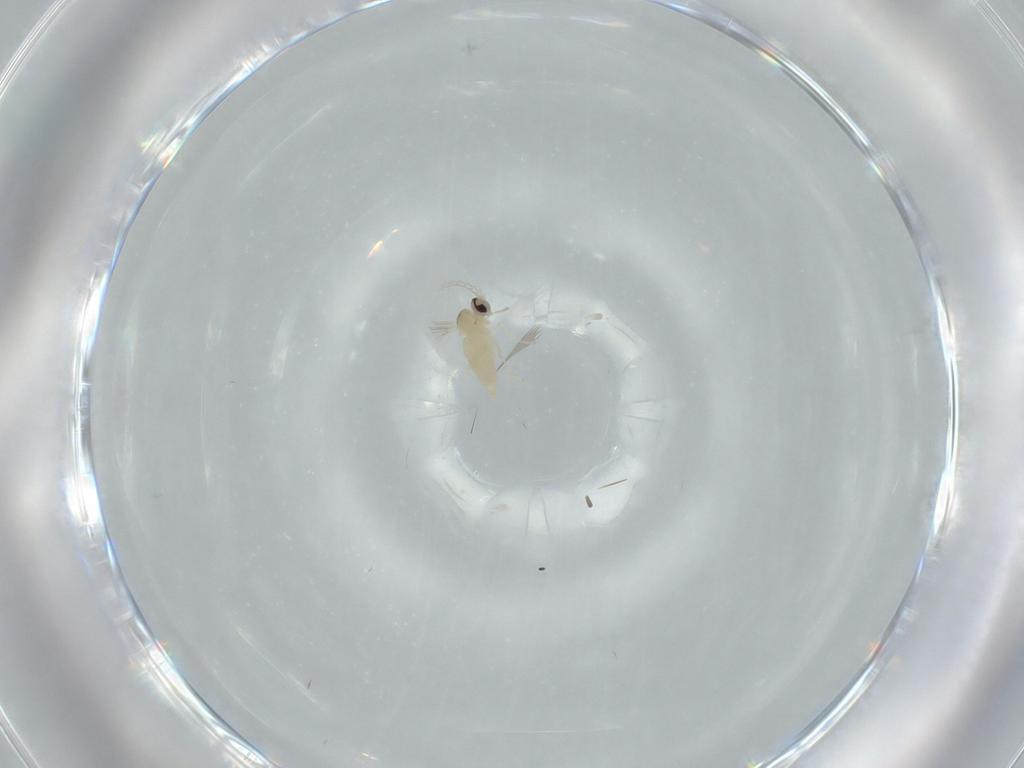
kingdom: Animalia
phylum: Arthropoda
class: Insecta
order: Diptera
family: Cecidomyiidae
